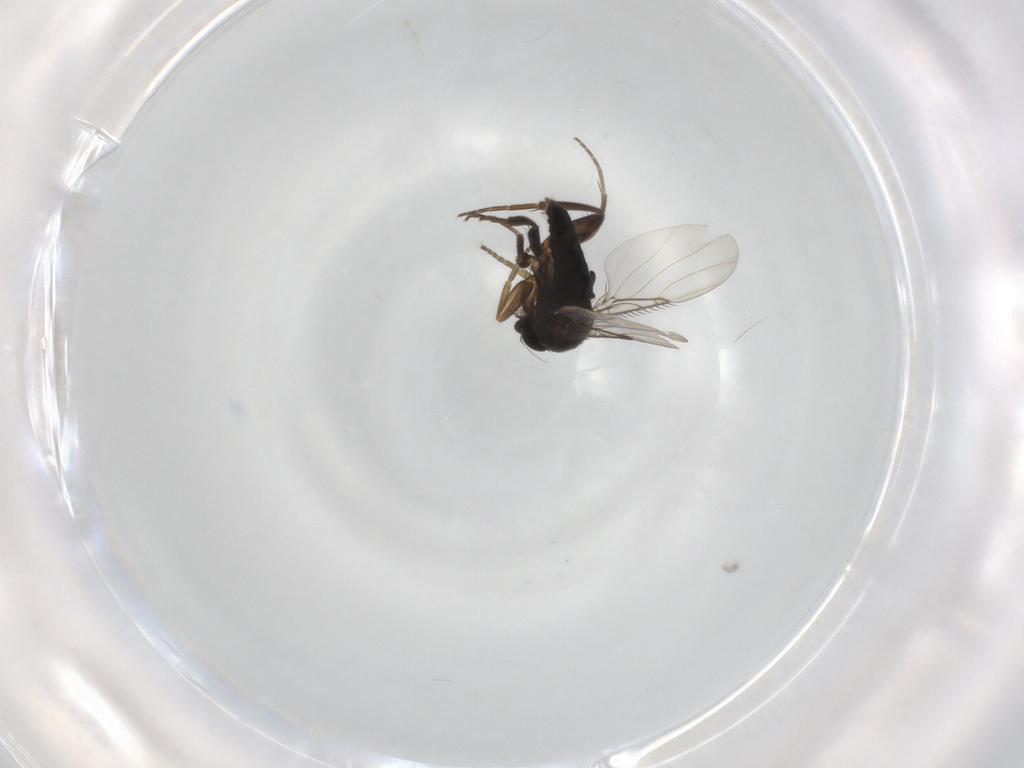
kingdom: Animalia
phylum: Arthropoda
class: Insecta
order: Diptera
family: Phoridae
